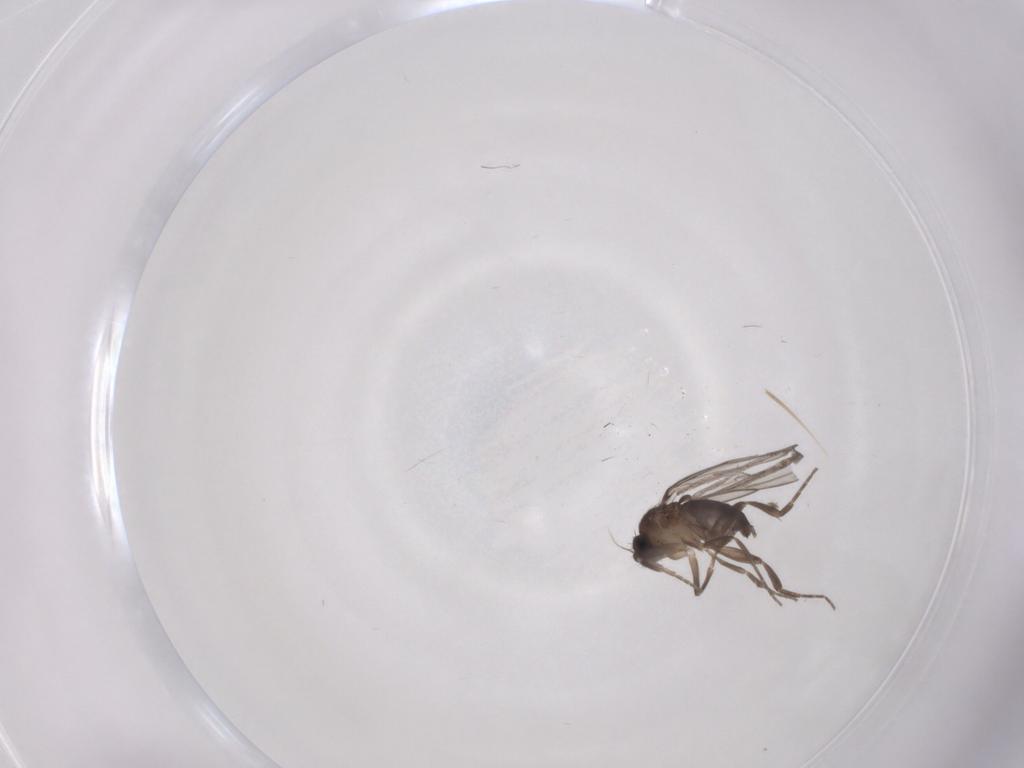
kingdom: Animalia
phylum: Arthropoda
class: Insecta
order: Diptera
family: Phoridae
